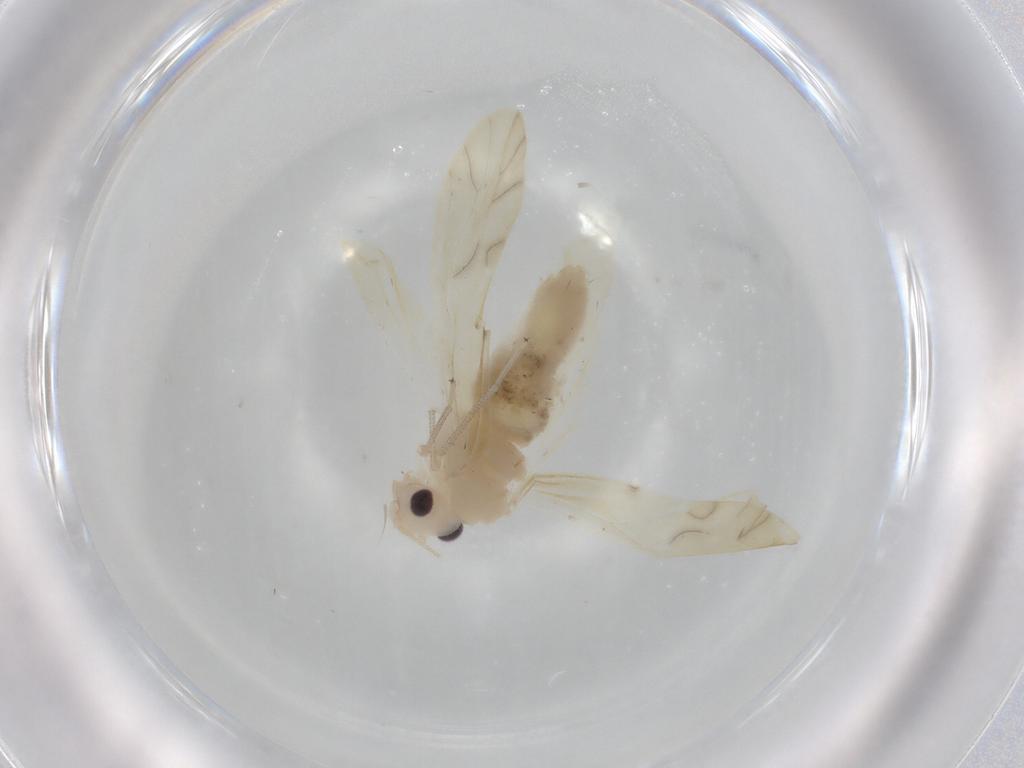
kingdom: Animalia
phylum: Arthropoda
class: Insecta
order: Psocodea
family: Caeciliusidae
